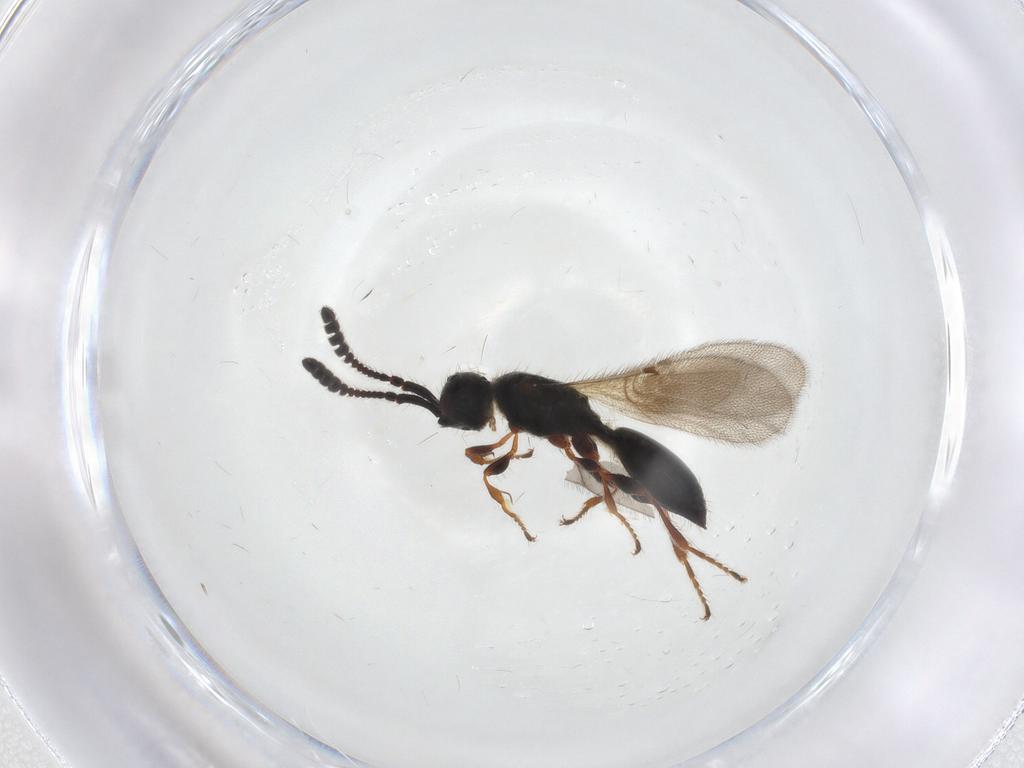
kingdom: Animalia
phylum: Arthropoda
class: Insecta
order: Hymenoptera
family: Diapriidae
